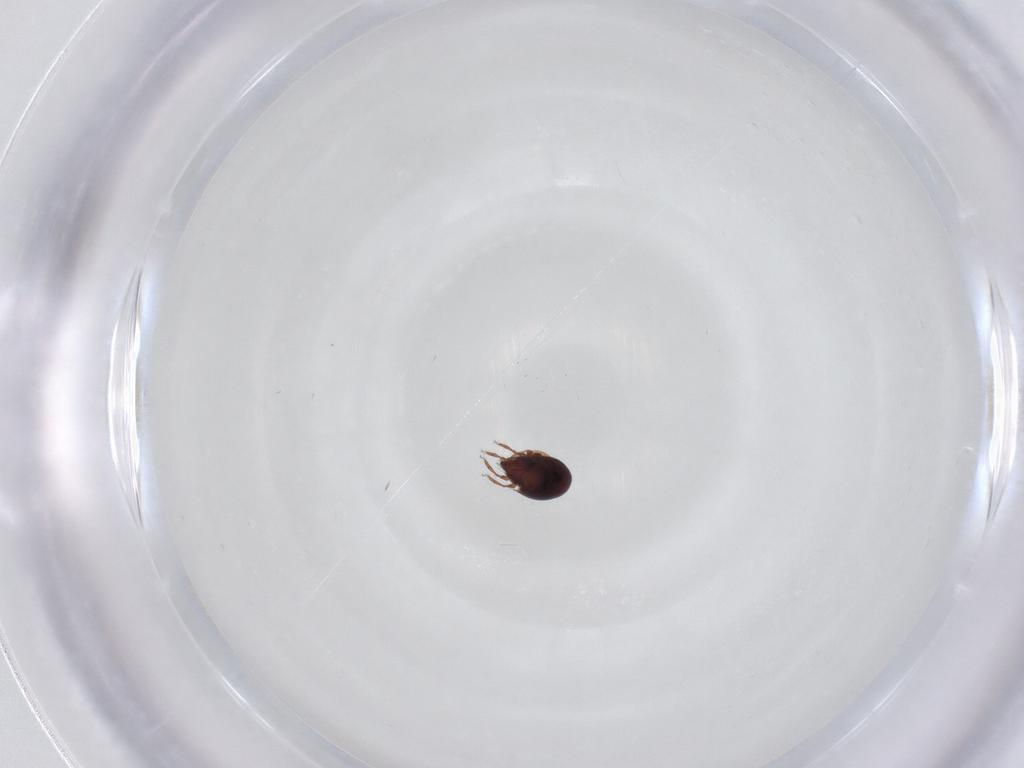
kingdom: Animalia
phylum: Arthropoda
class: Arachnida
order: Sarcoptiformes
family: Ceratozetidae
